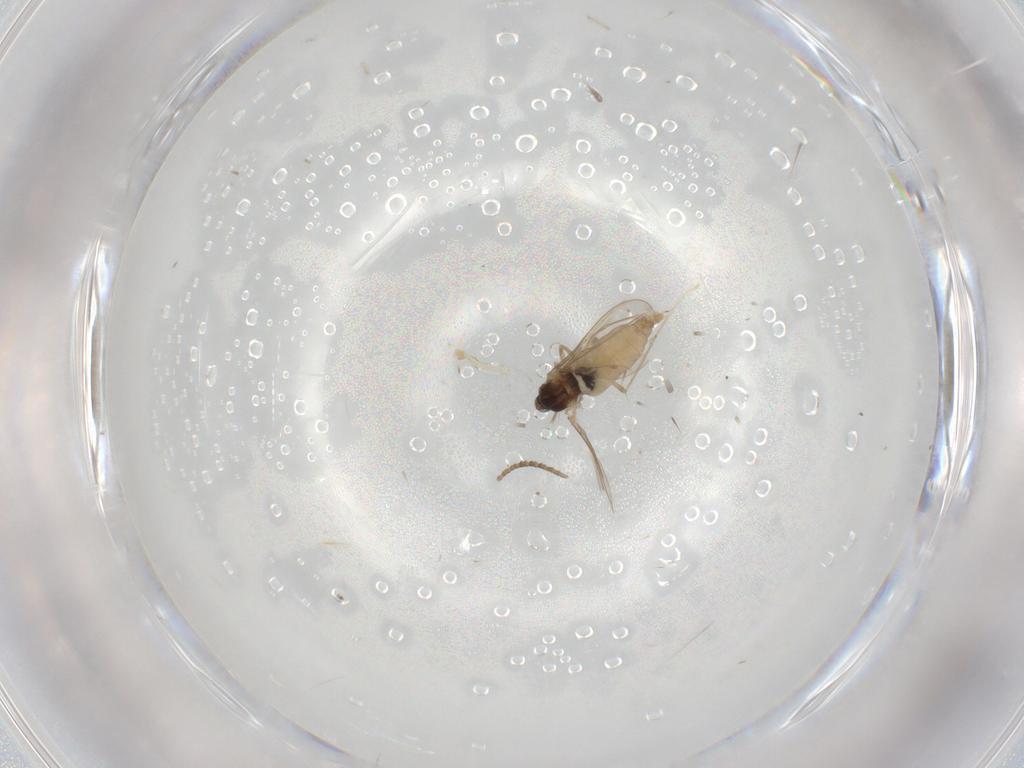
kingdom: Animalia
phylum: Arthropoda
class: Insecta
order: Diptera
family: Cecidomyiidae
